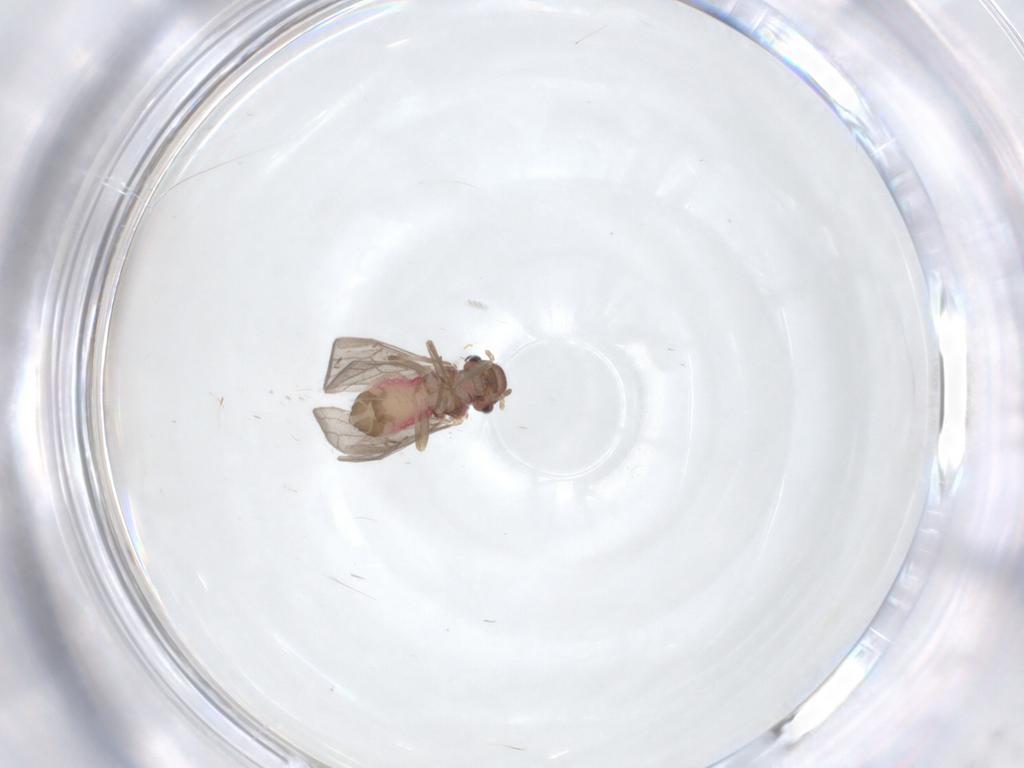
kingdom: Animalia
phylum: Arthropoda
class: Insecta
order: Psocodea
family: Asiopsocidae
